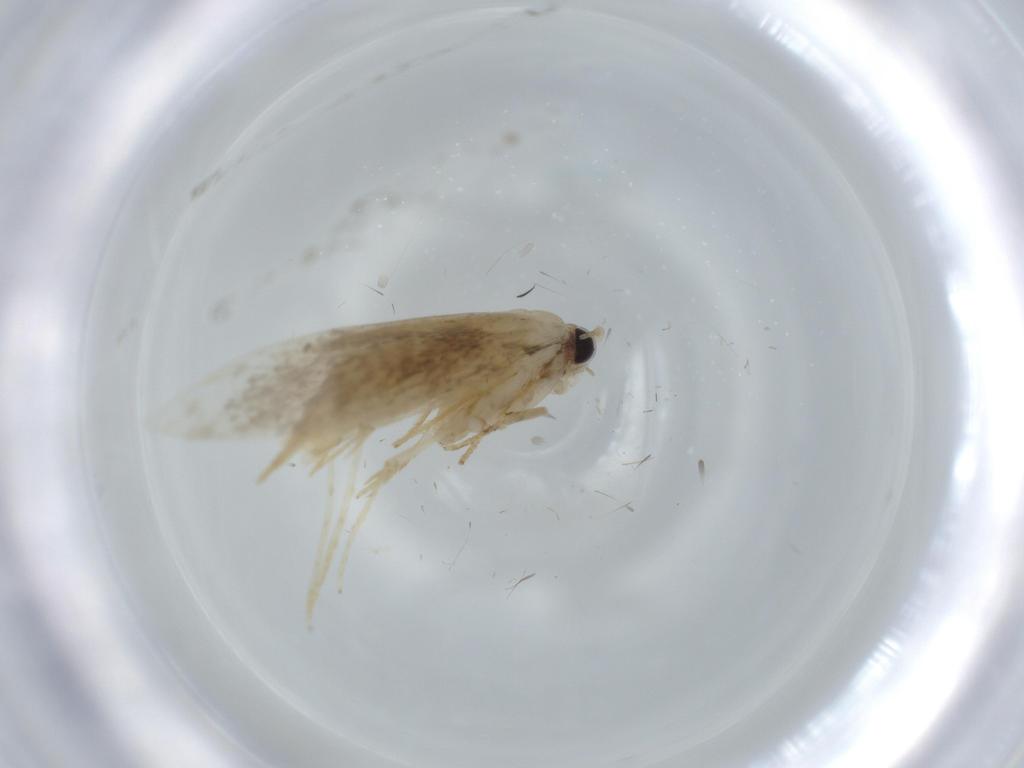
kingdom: Animalia
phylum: Arthropoda
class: Insecta
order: Lepidoptera
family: Tineidae
